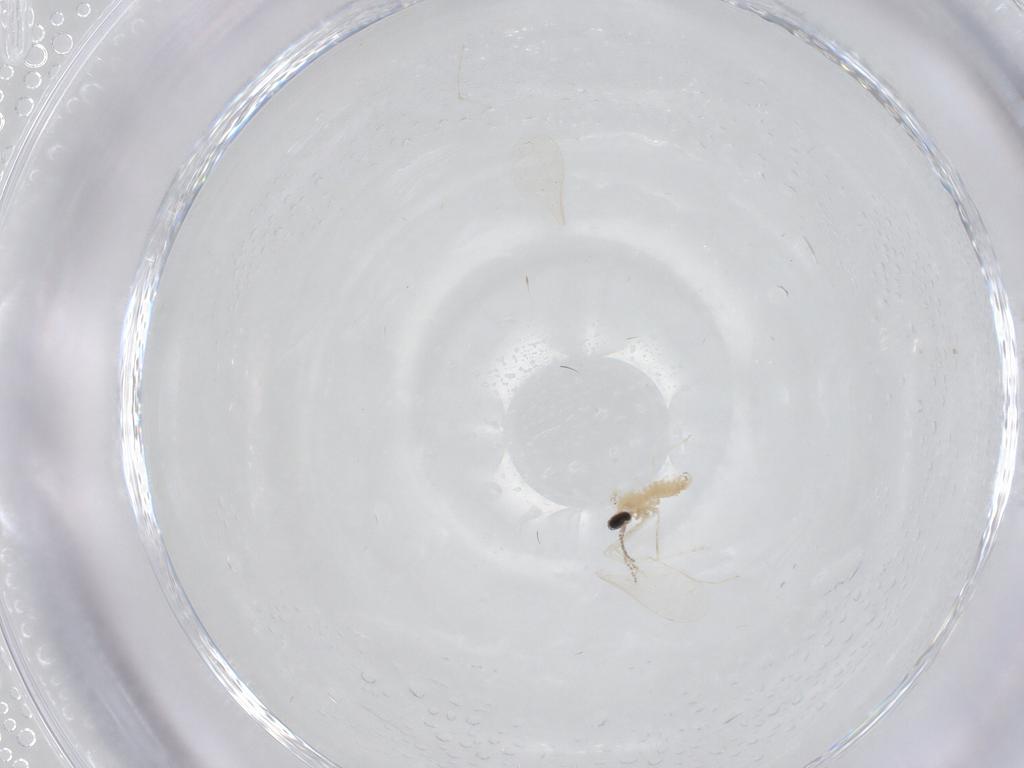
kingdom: Animalia
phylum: Arthropoda
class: Insecta
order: Diptera
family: Cecidomyiidae
